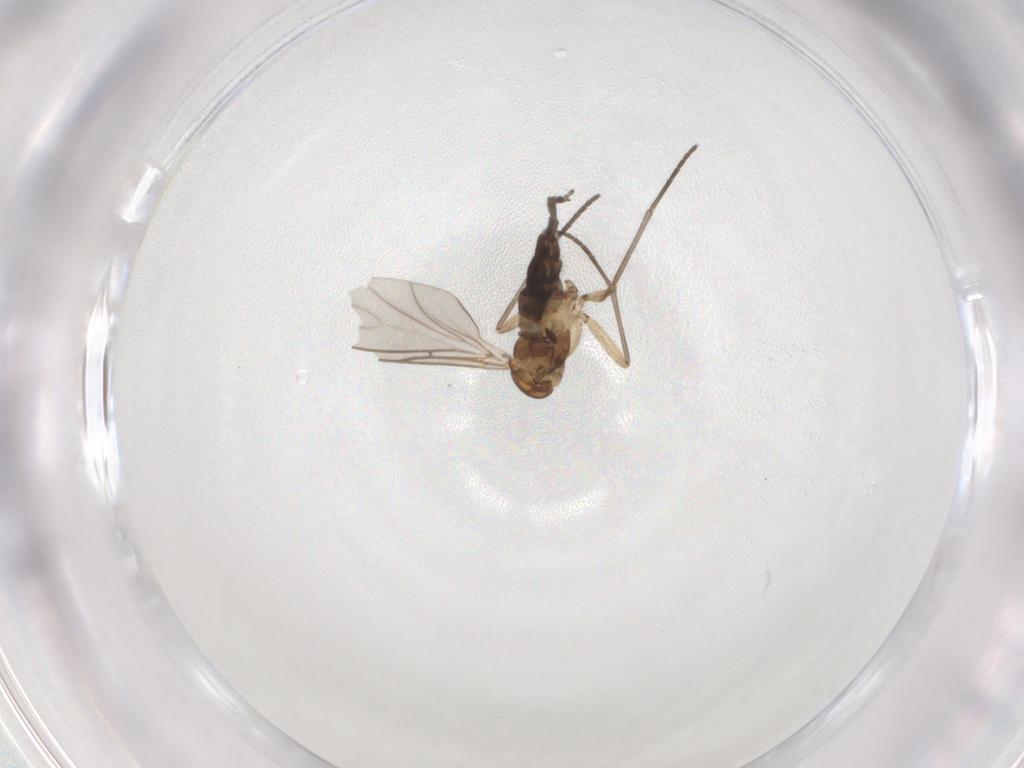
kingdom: Animalia
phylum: Arthropoda
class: Insecta
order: Diptera
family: Sciaridae
